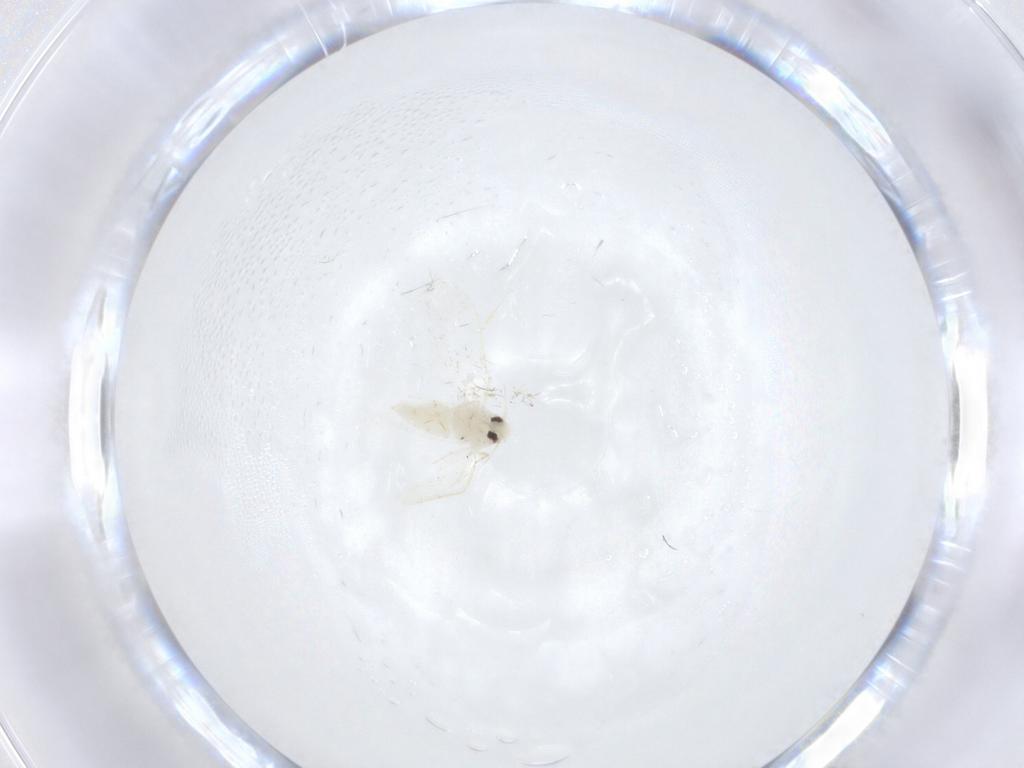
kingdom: Animalia
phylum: Arthropoda
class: Insecta
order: Hemiptera
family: Aleyrodidae
